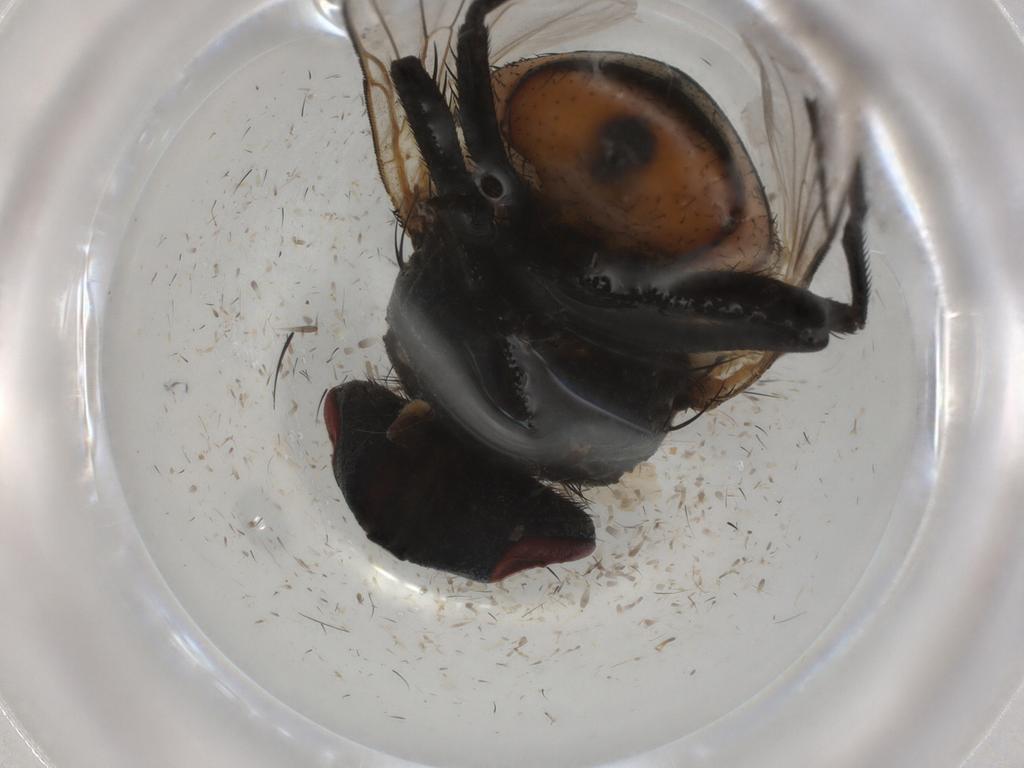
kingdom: Animalia
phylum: Arthropoda
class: Insecta
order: Diptera
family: Glossinidae
